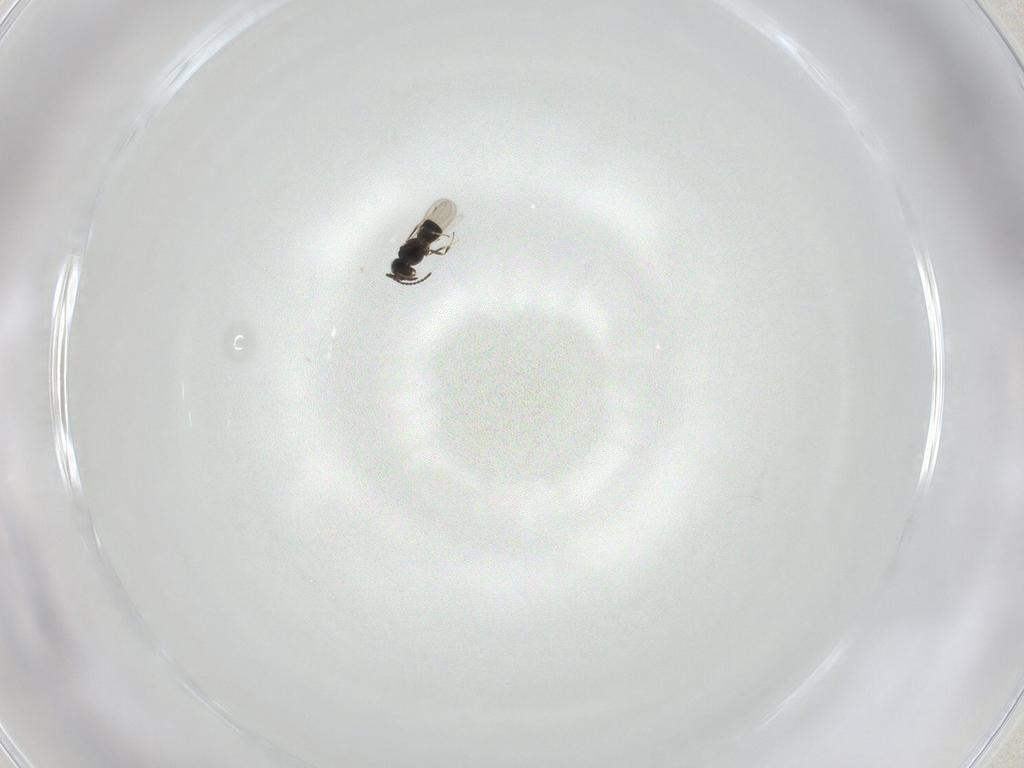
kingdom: Animalia
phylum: Arthropoda
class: Insecta
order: Hymenoptera
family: Scelionidae
